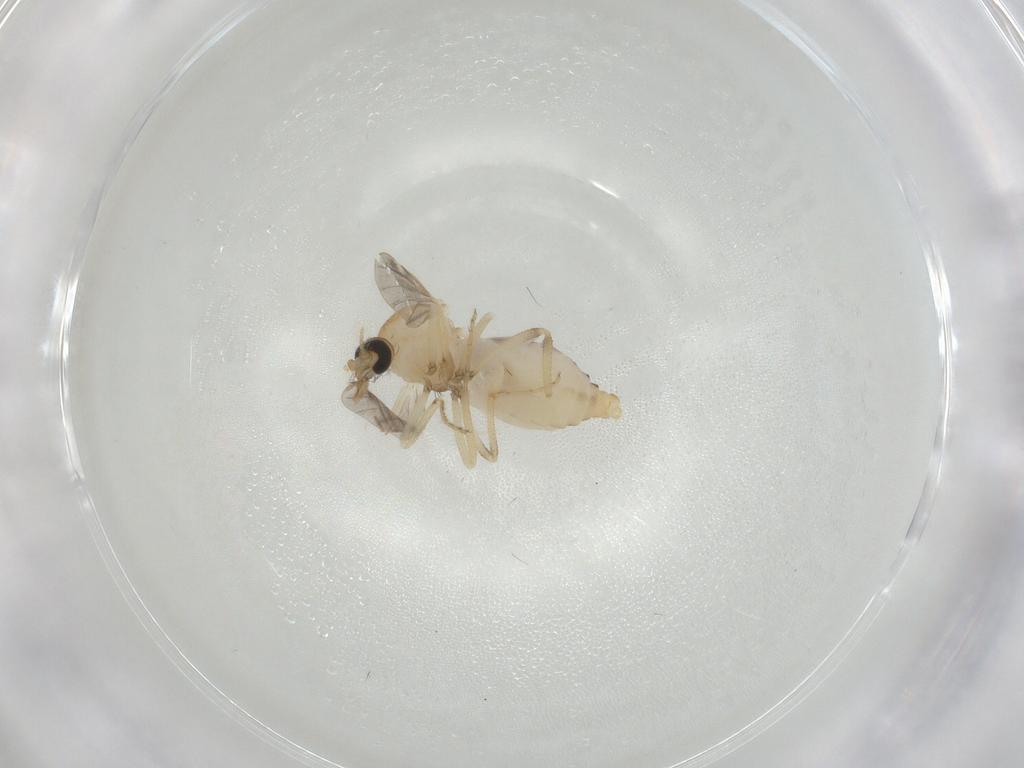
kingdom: Animalia
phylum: Arthropoda
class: Insecta
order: Diptera
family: Ceratopogonidae
